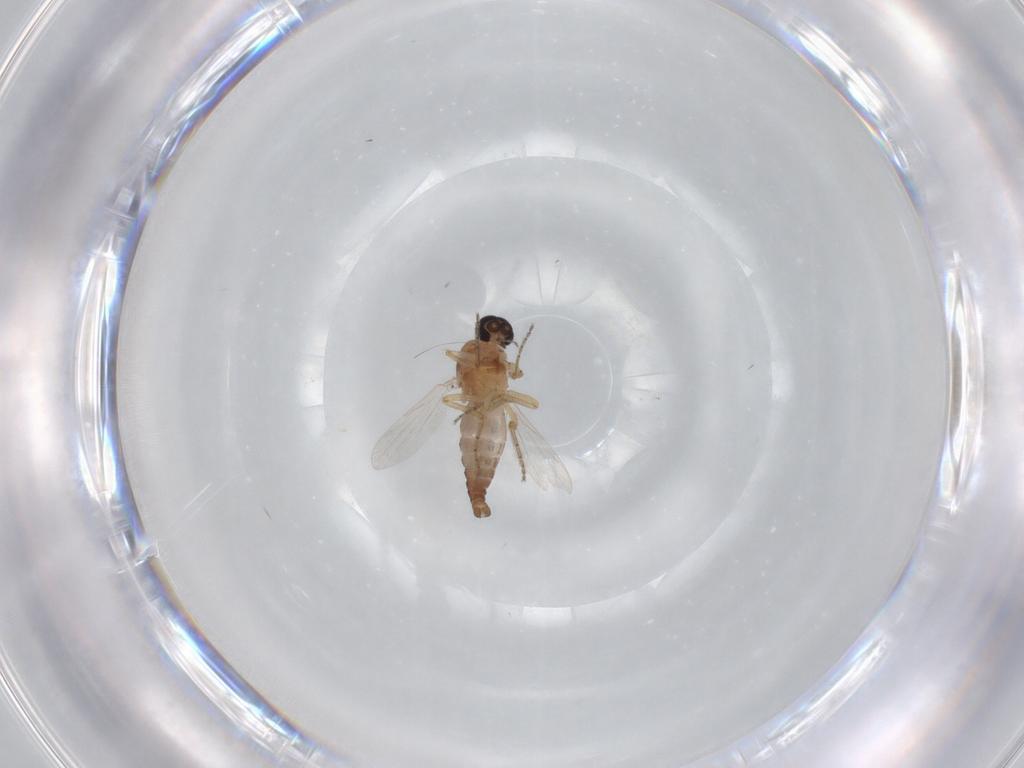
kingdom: Animalia
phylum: Arthropoda
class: Insecta
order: Diptera
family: Ceratopogonidae
